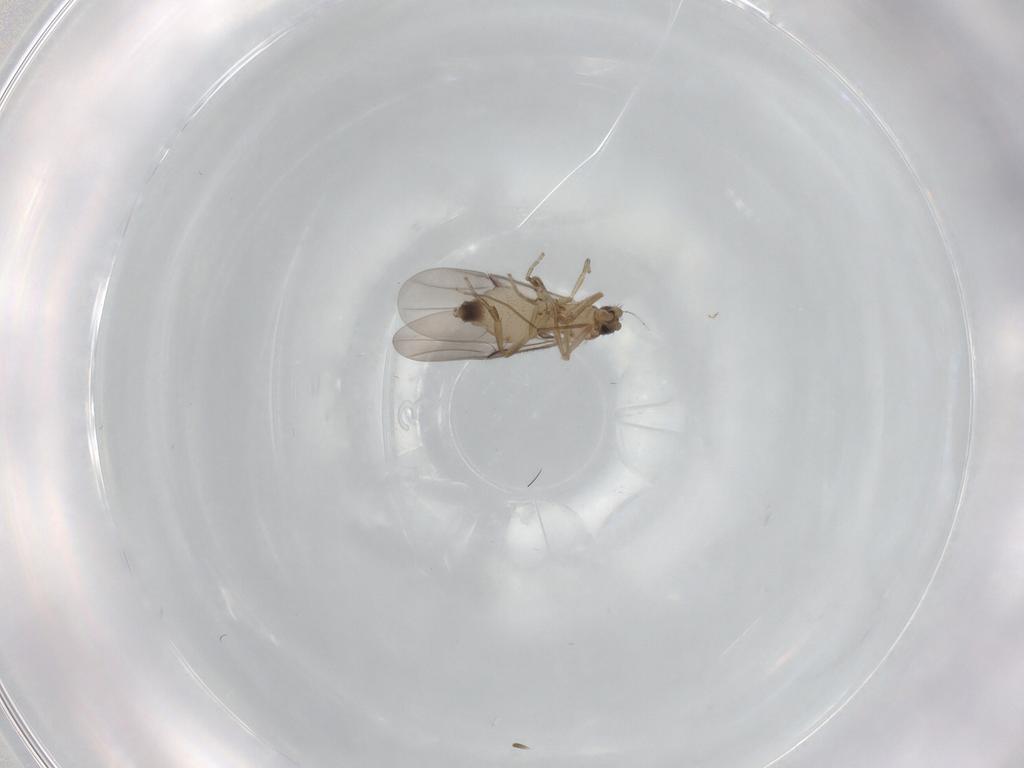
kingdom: Animalia
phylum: Arthropoda
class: Insecta
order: Diptera
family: Phoridae
